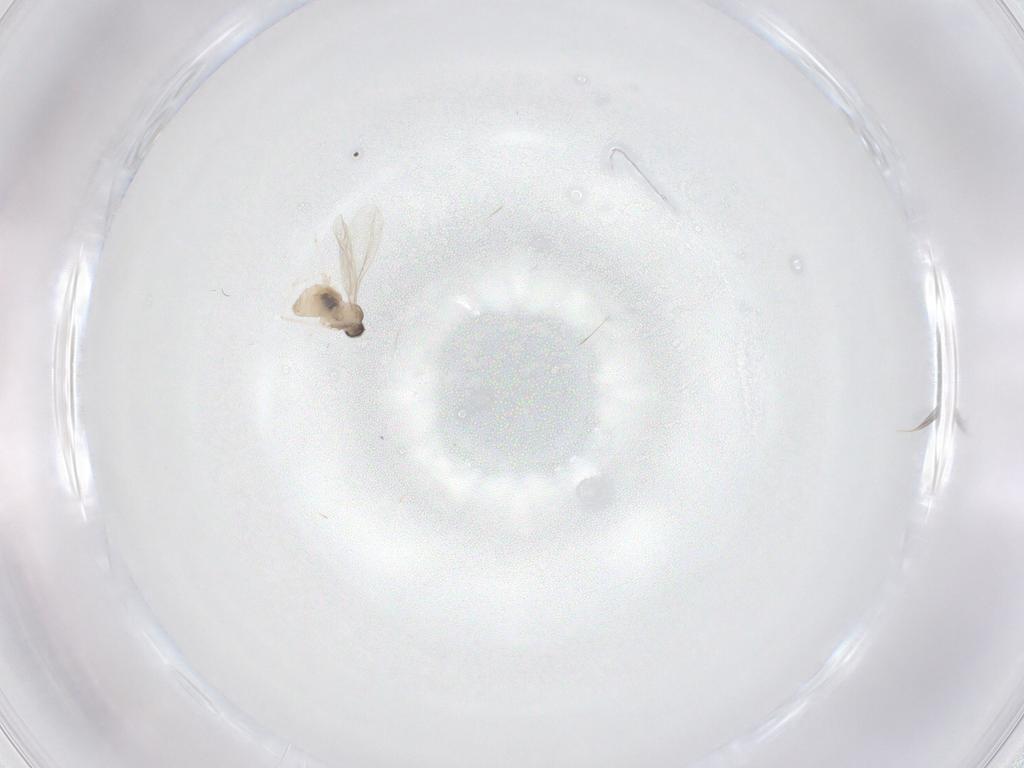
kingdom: Animalia
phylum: Arthropoda
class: Insecta
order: Diptera
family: Cecidomyiidae
